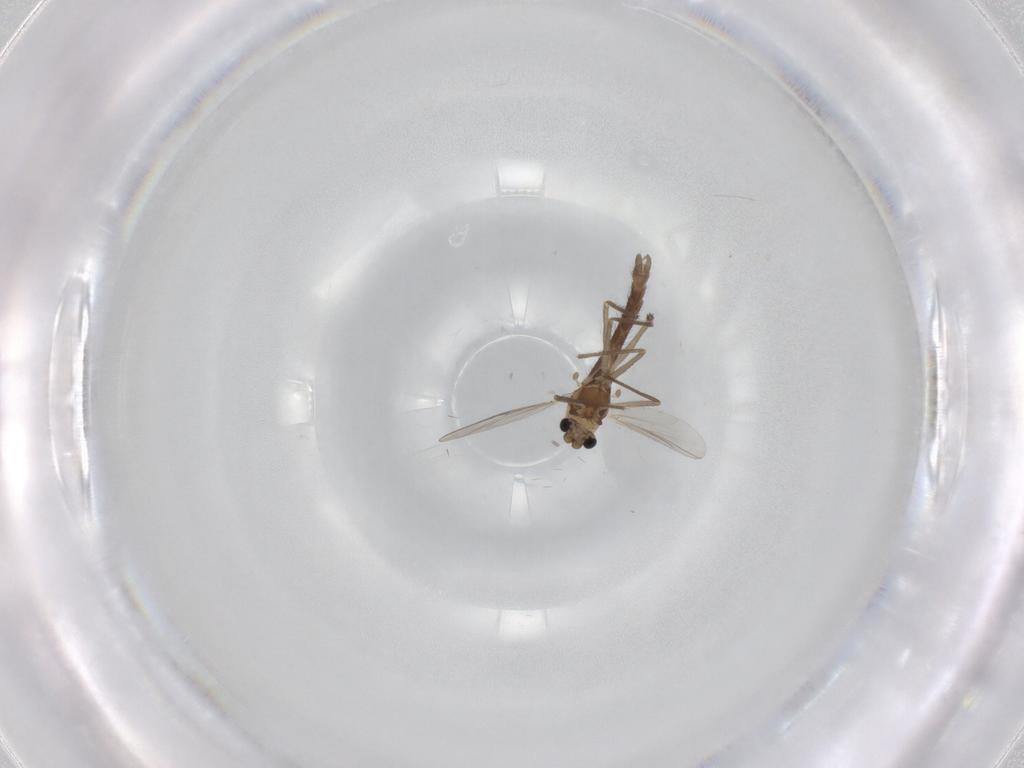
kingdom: Animalia
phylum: Arthropoda
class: Insecta
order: Diptera
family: Chironomidae
